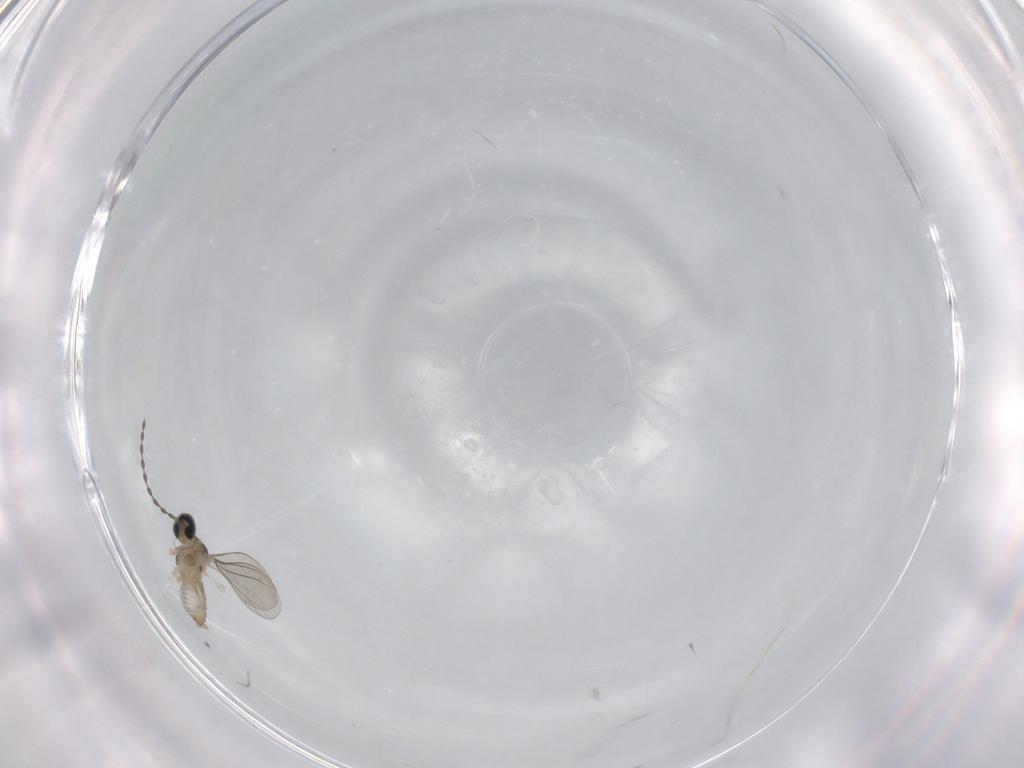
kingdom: Animalia
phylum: Arthropoda
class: Insecta
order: Diptera
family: Cecidomyiidae
